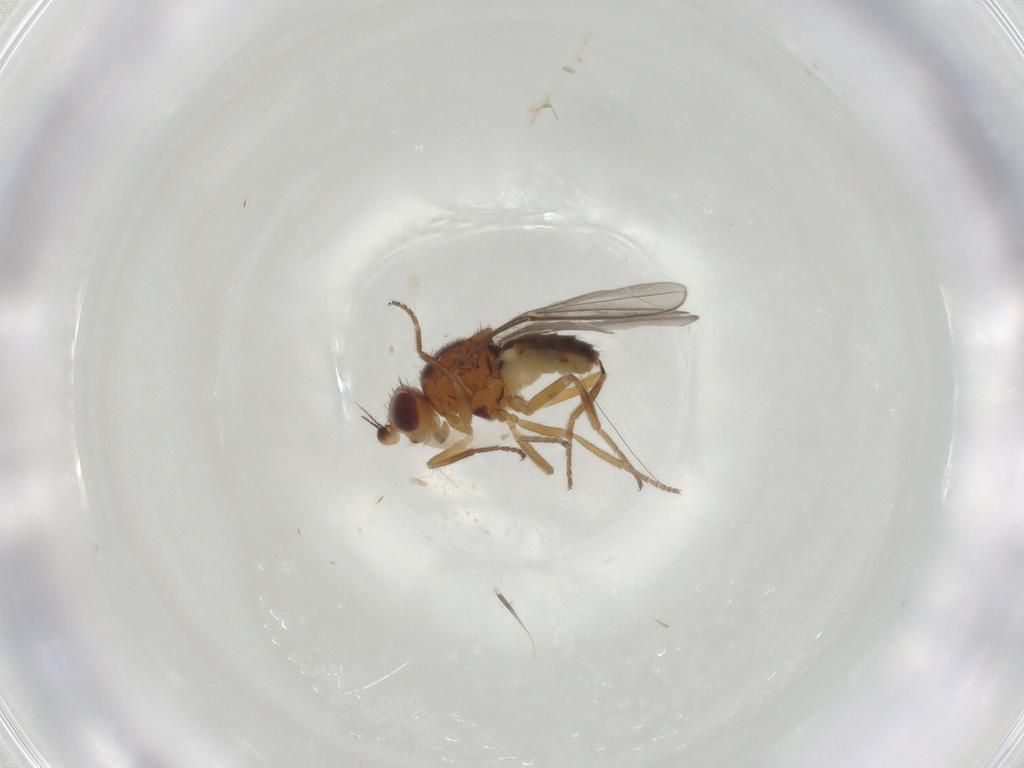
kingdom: Animalia
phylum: Arthropoda
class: Insecta
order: Diptera
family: Chloropidae
